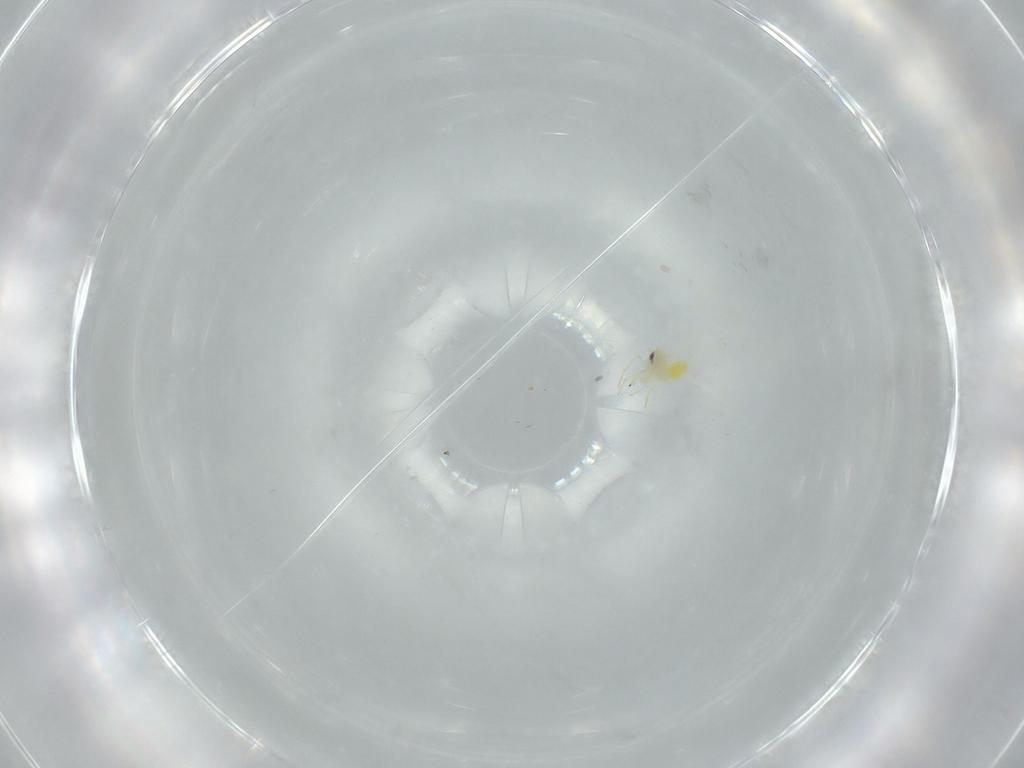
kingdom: Animalia
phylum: Arthropoda
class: Insecta
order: Hemiptera
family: Aleyrodidae
